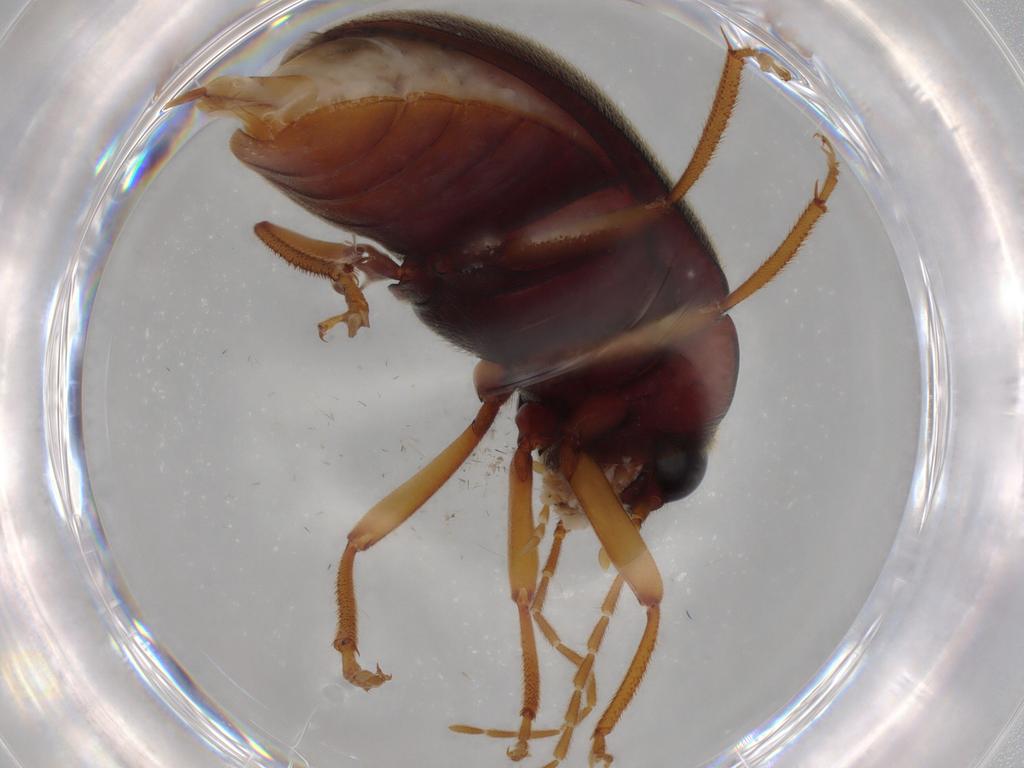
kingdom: Animalia
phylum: Arthropoda
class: Insecta
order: Coleoptera
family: Ptilodactylidae
